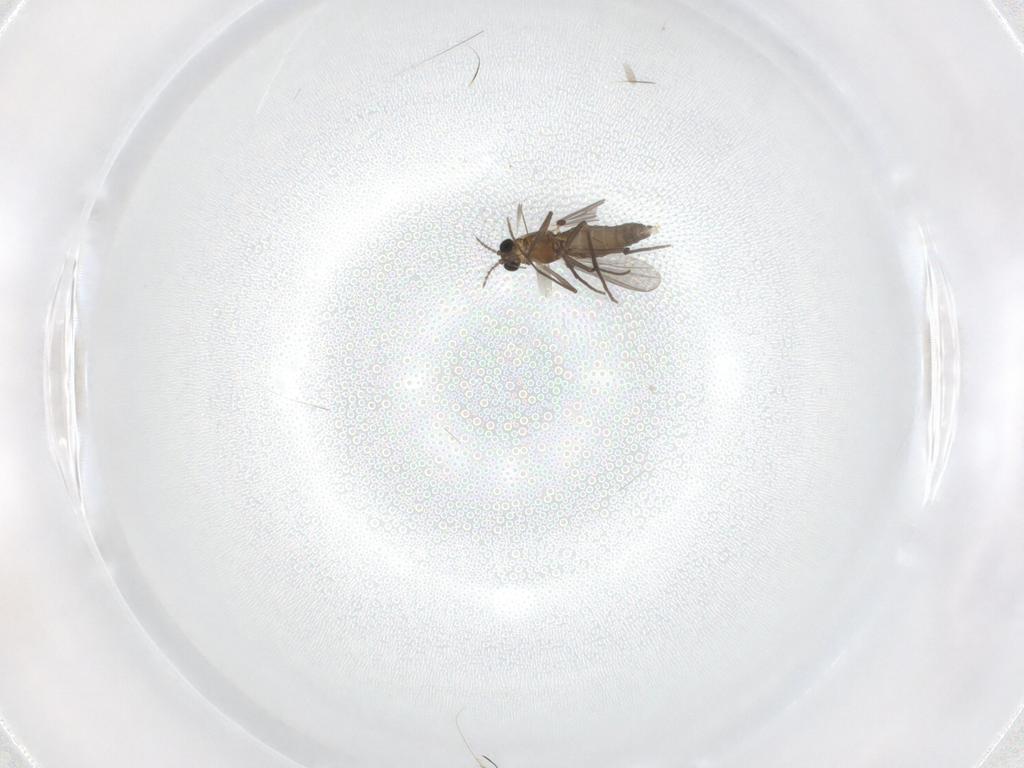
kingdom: Animalia
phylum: Arthropoda
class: Insecta
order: Diptera
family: Chironomidae
